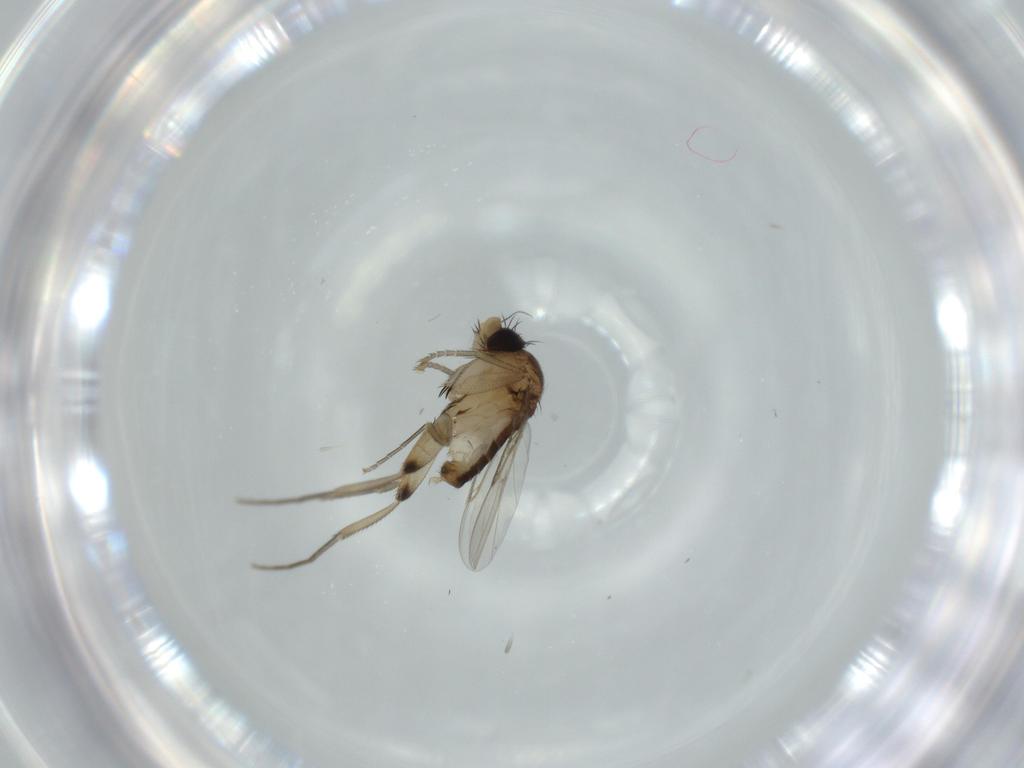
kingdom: Animalia
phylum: Arthropoda
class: Insecta
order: Diptera
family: Phoridae
